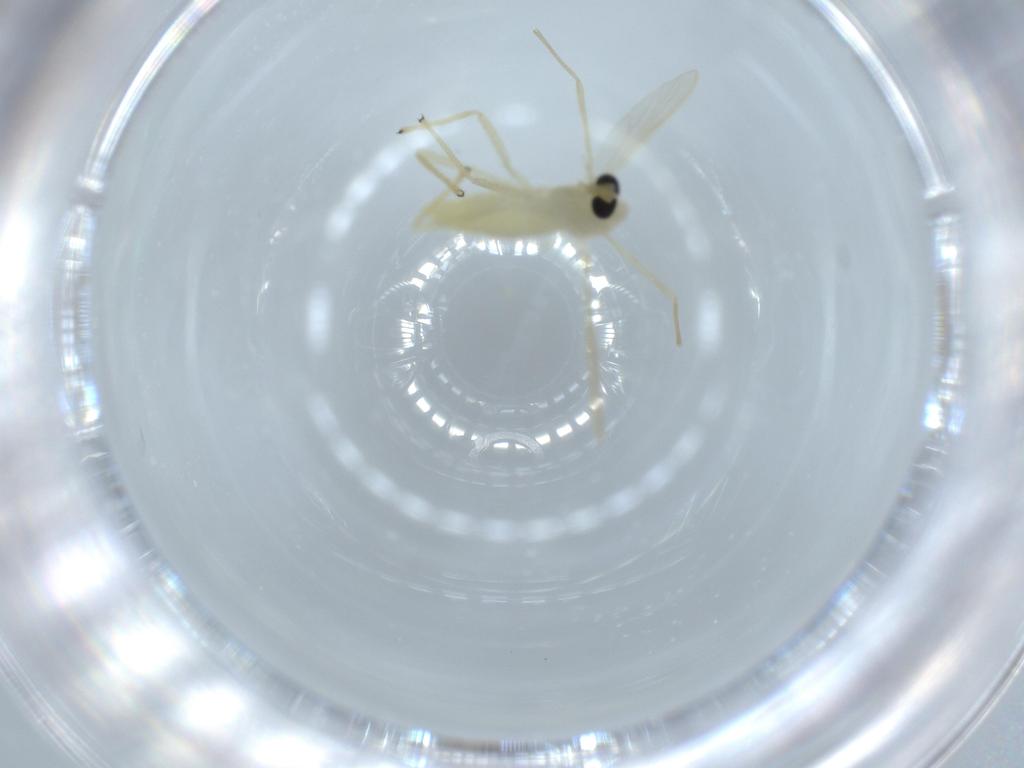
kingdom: Animalia
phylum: Arthropoda
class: Insecta
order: Diptera
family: Chironomidae
